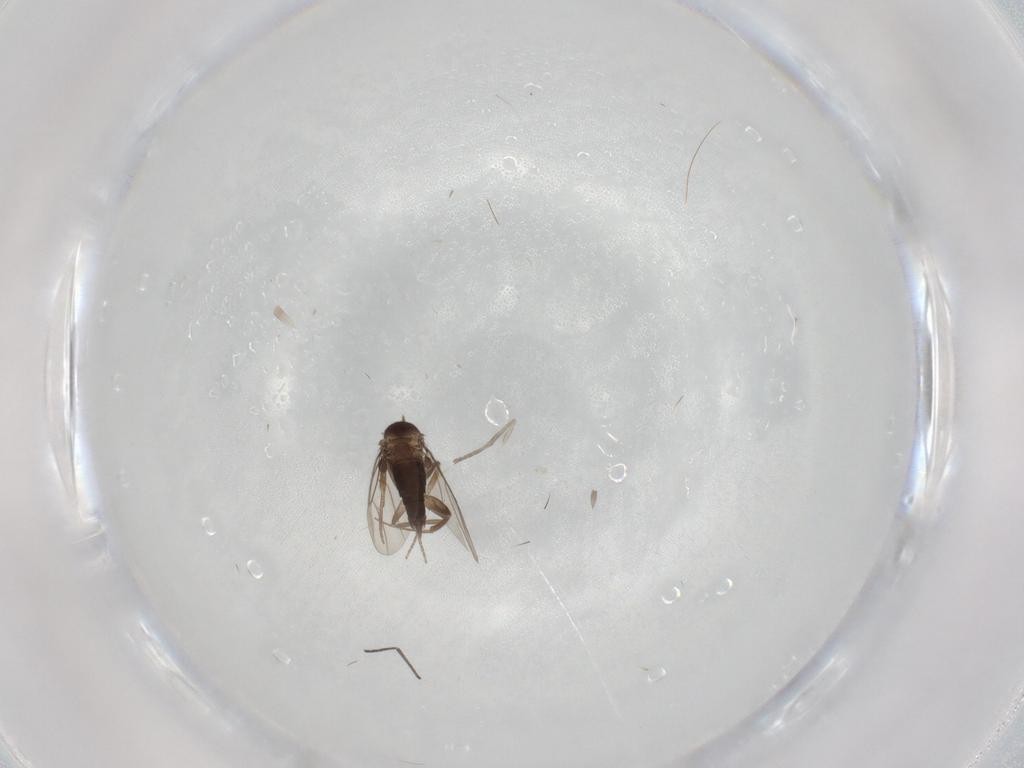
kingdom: Animalia
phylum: Arthropoda
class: Insecta
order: Diptera
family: Phoridae
